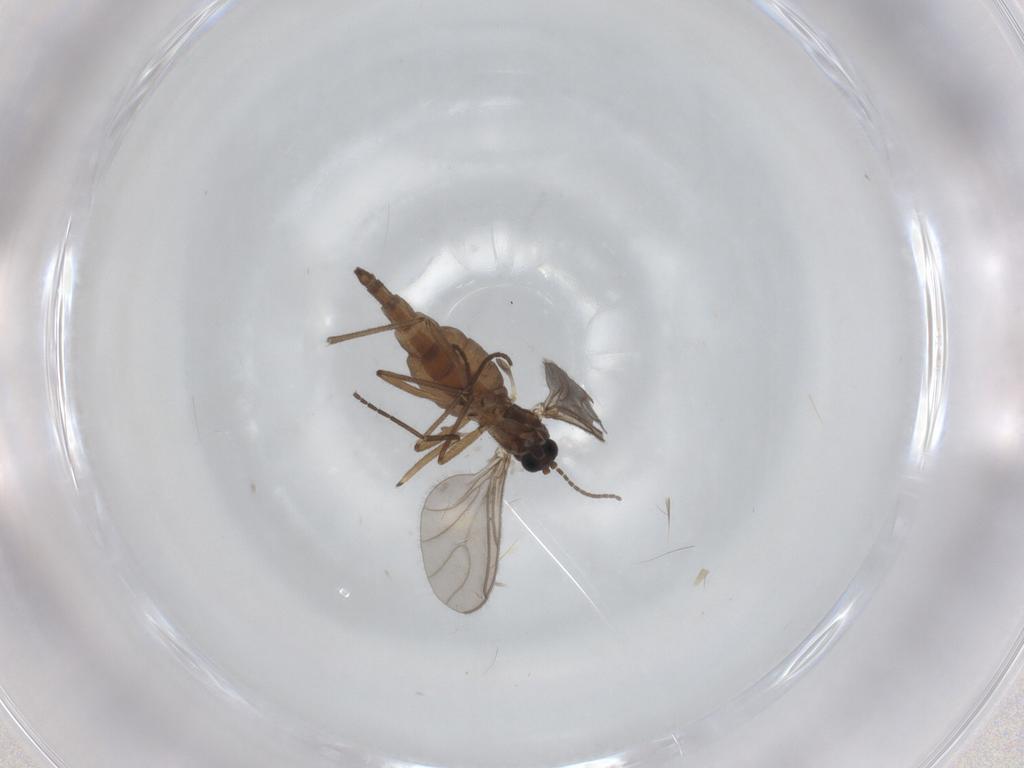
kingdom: Animalia
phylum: Arthropoda
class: Insecta
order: Diptera
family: Sciaridae
